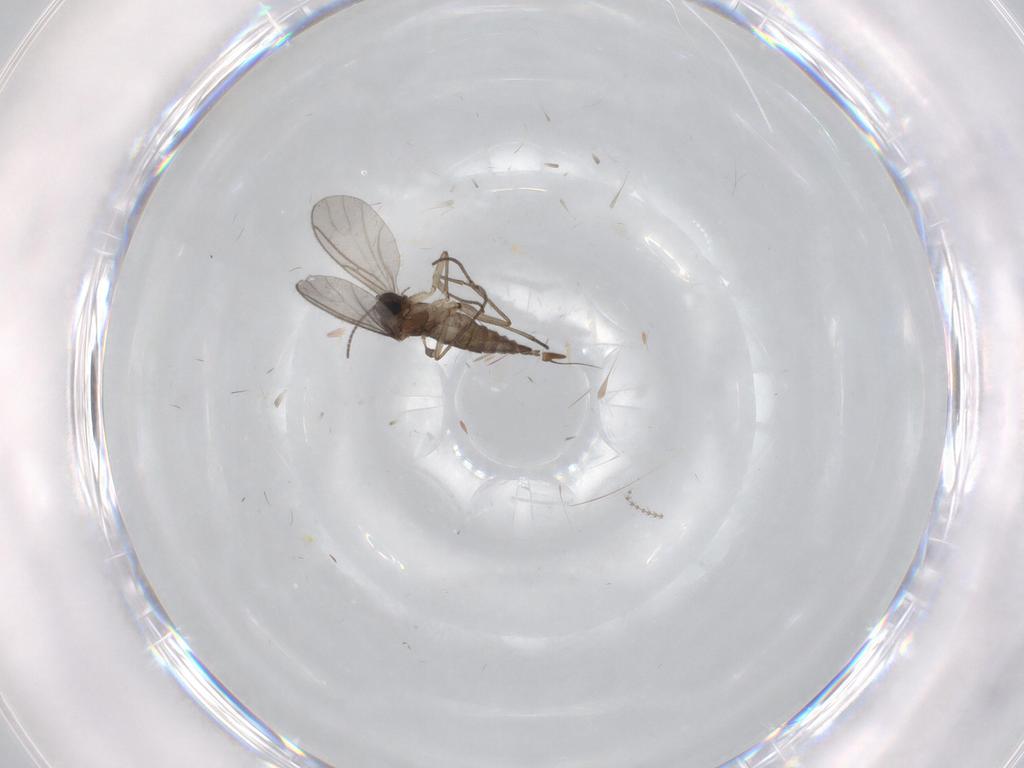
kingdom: Animalia
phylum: Arthropoda
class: Insecta
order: Diptera
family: Sciaridae
